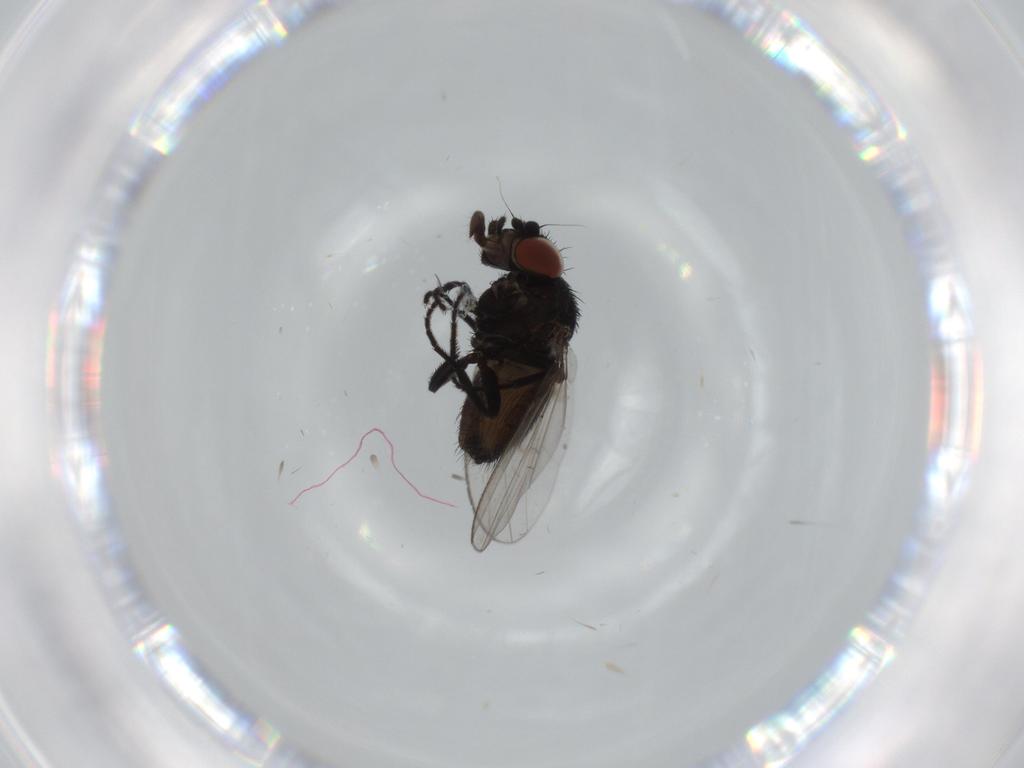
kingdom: Animalia
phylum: Arthropoda
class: Insecta
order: Diptera
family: Milichiidae
